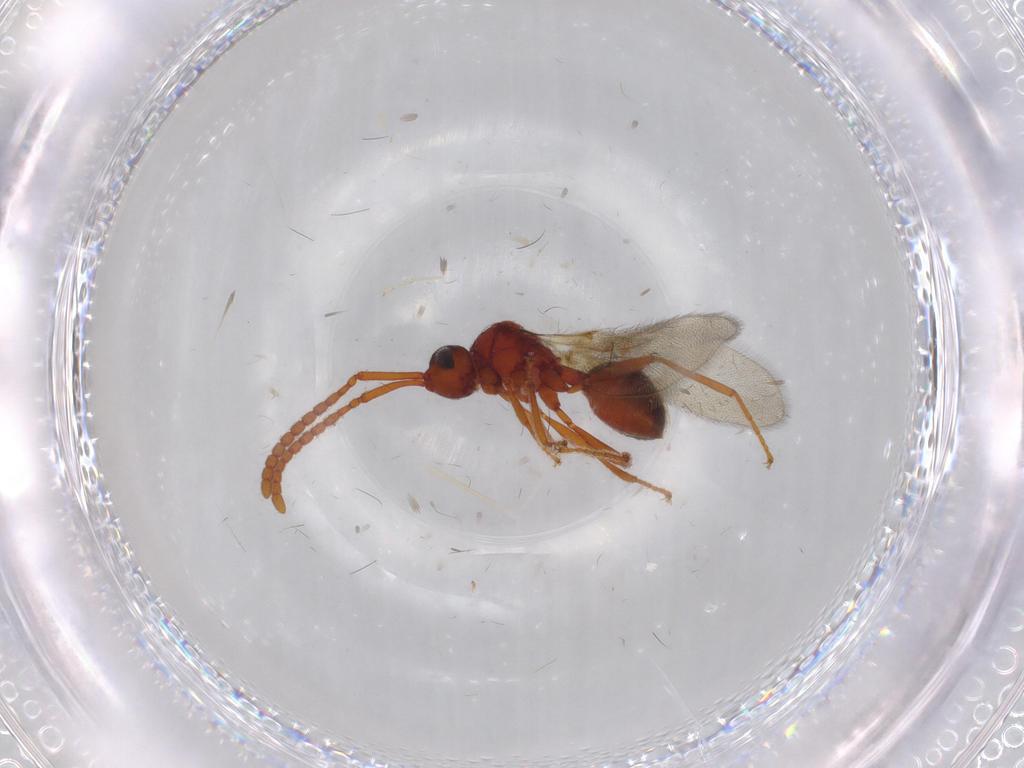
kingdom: Animalia
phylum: Arthropoda
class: Insecta
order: Hymenoptera
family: Diapriidae
